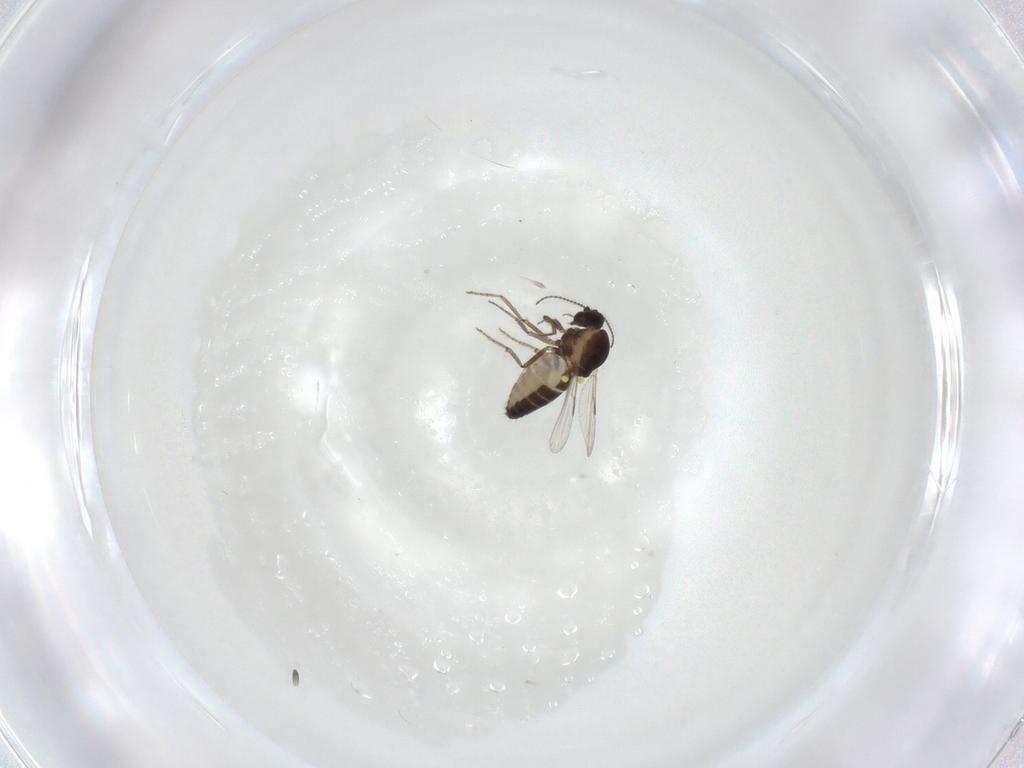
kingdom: Animalia
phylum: Arthropoda
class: Insecta
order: Diptera
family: Ceratopogonidae
